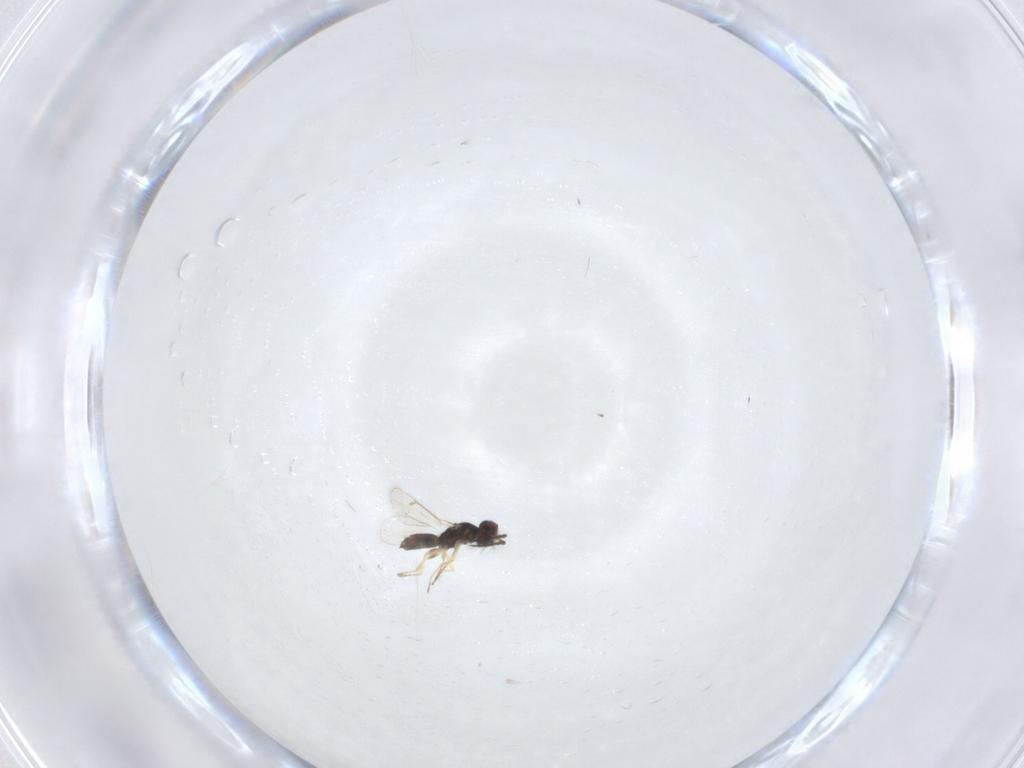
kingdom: Animalia
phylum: Arthropoda
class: Insecta
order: Hymenoptera
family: Eulophidae
